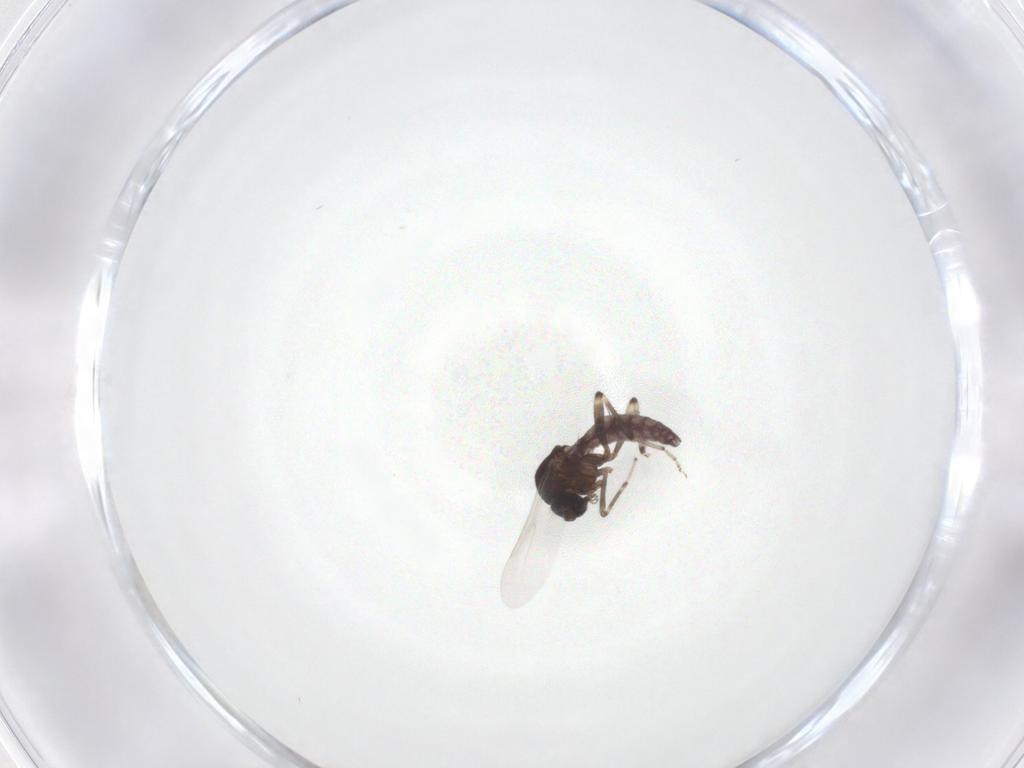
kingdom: Animalia
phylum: Arthropoda
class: Insecta
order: Diptera
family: Ceratopogonidae
